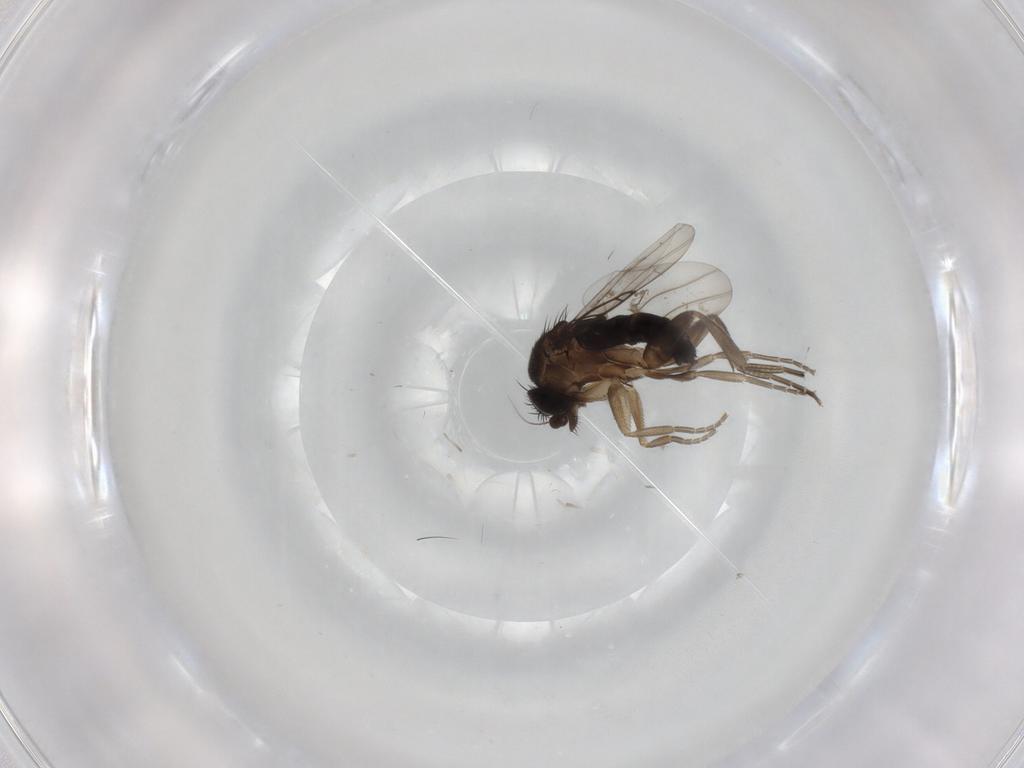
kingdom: Animalia
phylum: Arthropoda
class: Insecta
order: Diptera
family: Phoridae
